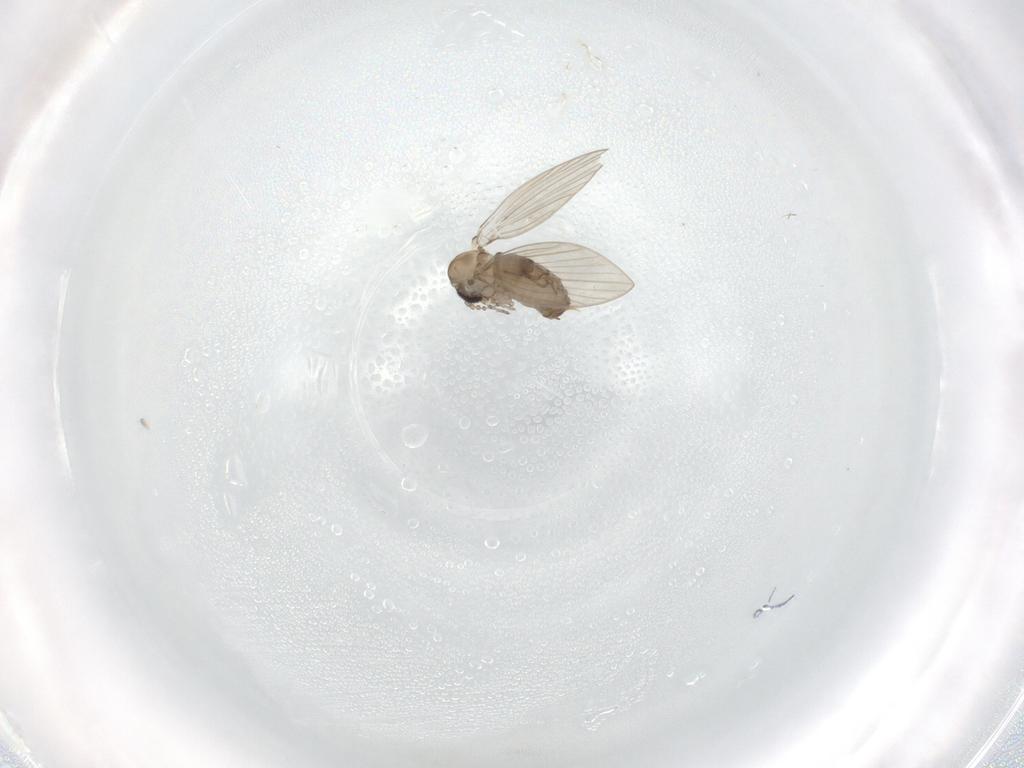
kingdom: Animalia
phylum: Arthropoda
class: Insecta
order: Diptera
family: Psychodidae
